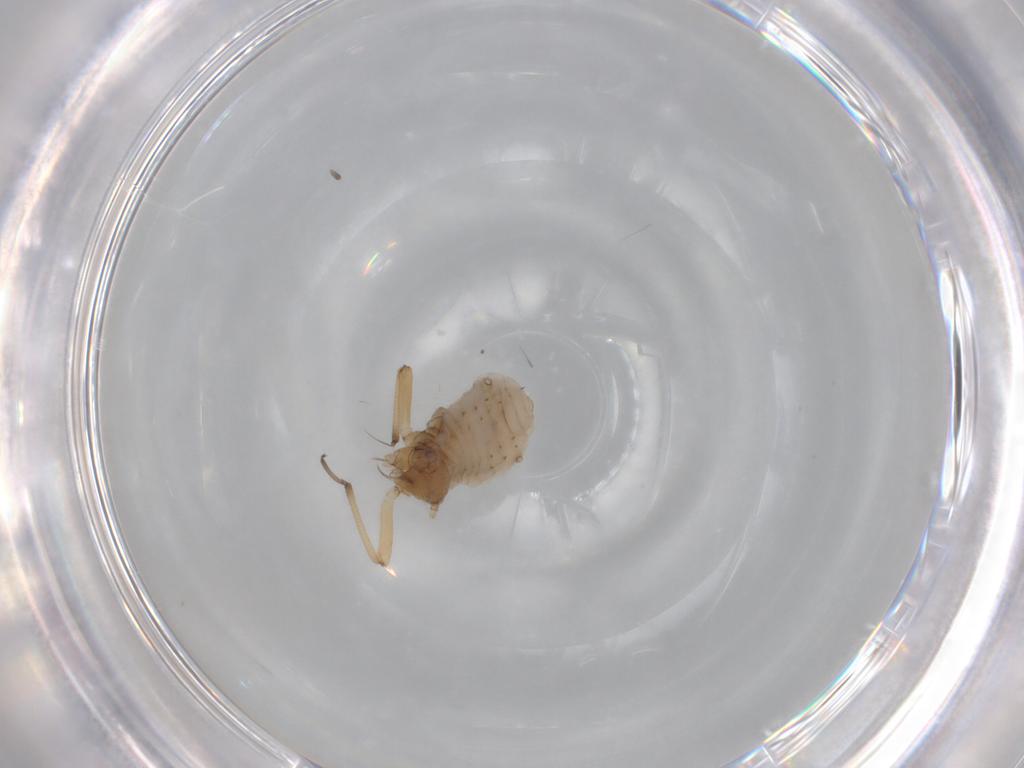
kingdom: Animalia
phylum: Arthropoda
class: Insecta
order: Hemiptera
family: Aphididae
